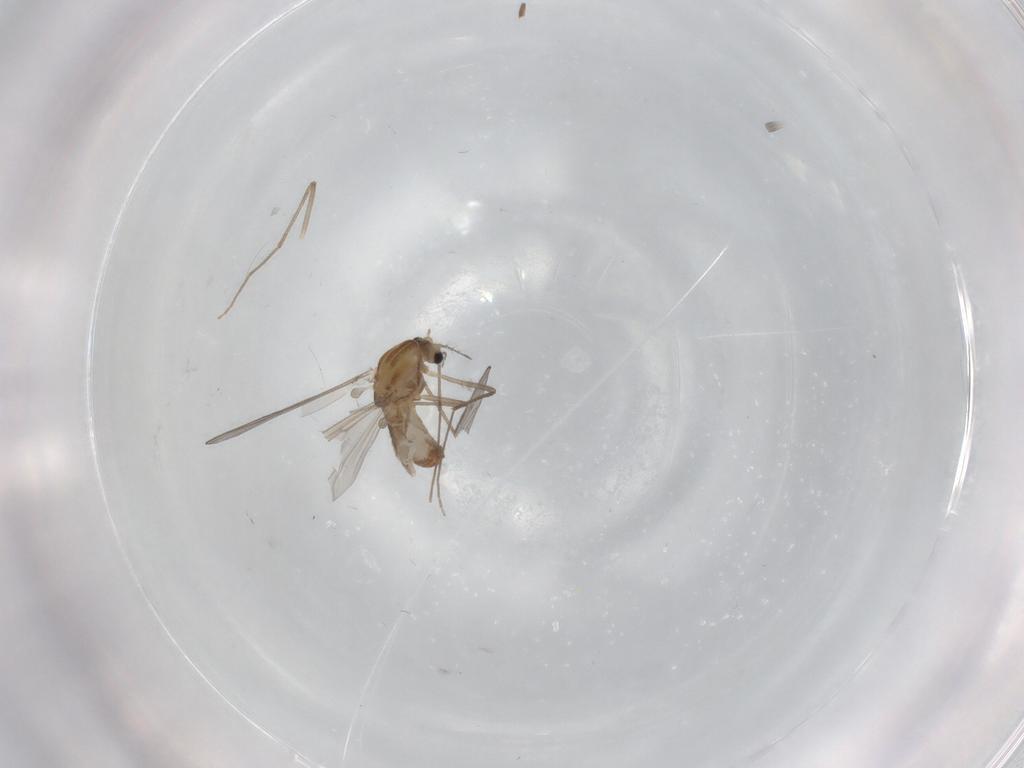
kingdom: Animalia
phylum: Arthropoda
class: Insecta
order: Diptera
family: Chironomidae
